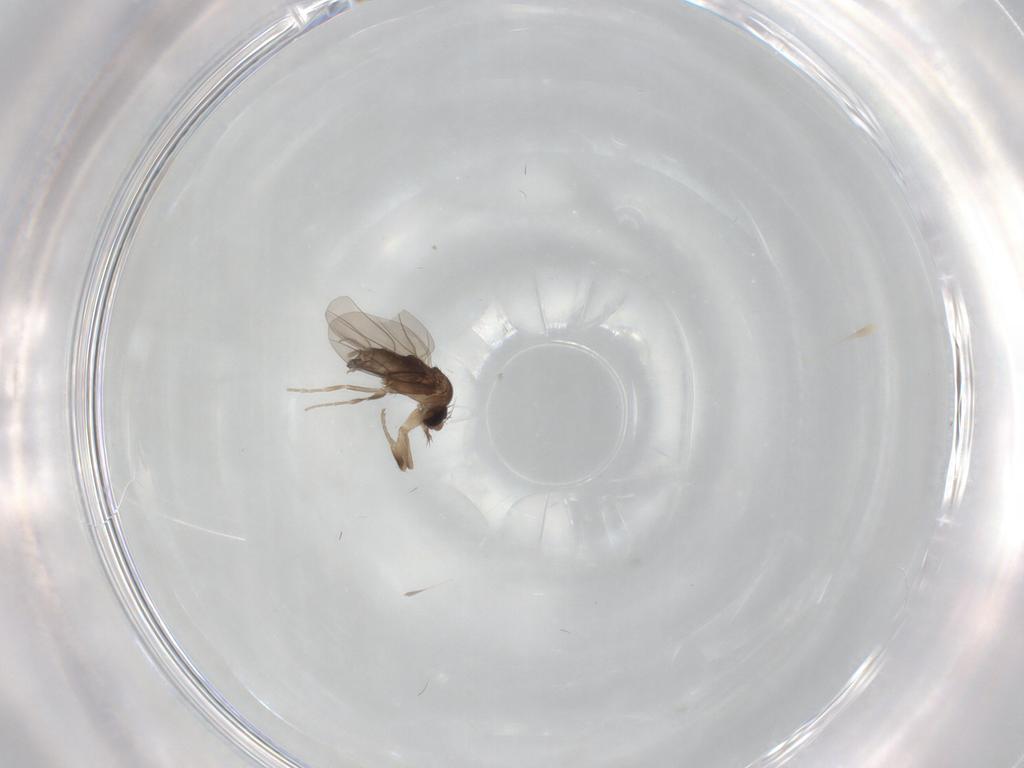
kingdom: Animalia
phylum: Arthropoda
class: Insecta
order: Diptera
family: Phoridae
